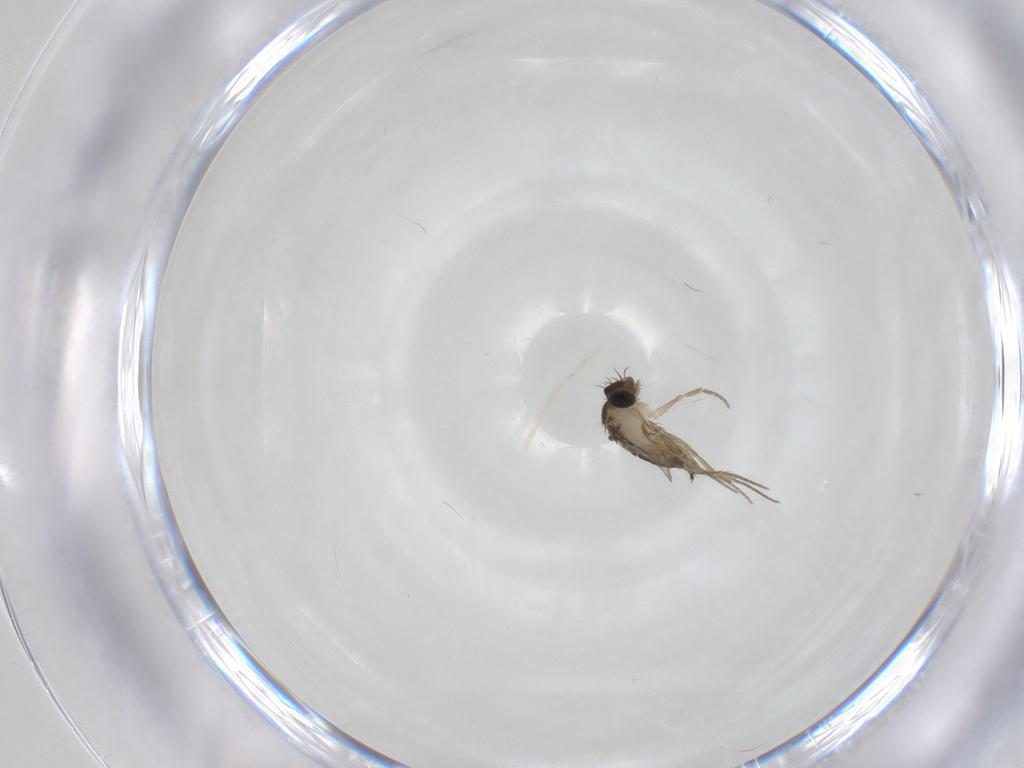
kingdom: Animalia
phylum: Arthropoda
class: Insecta
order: Diptera
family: Phoridae
